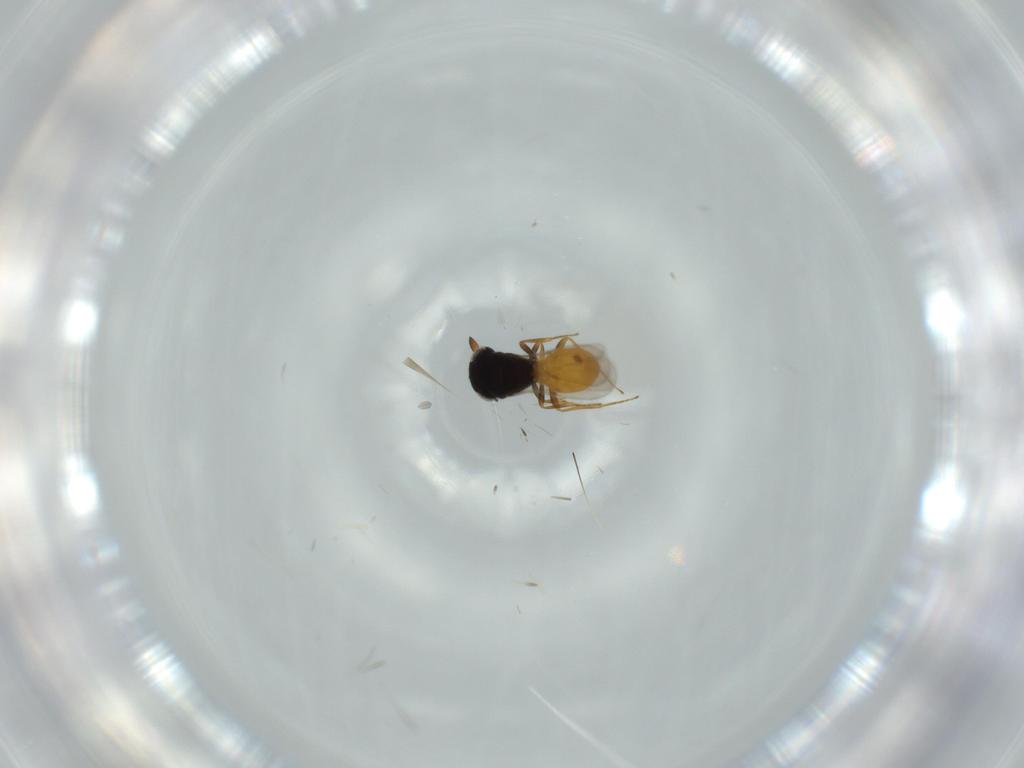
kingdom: Animalia
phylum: Arthropoda
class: Insecta
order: Hymenoptera
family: Scelionidae
